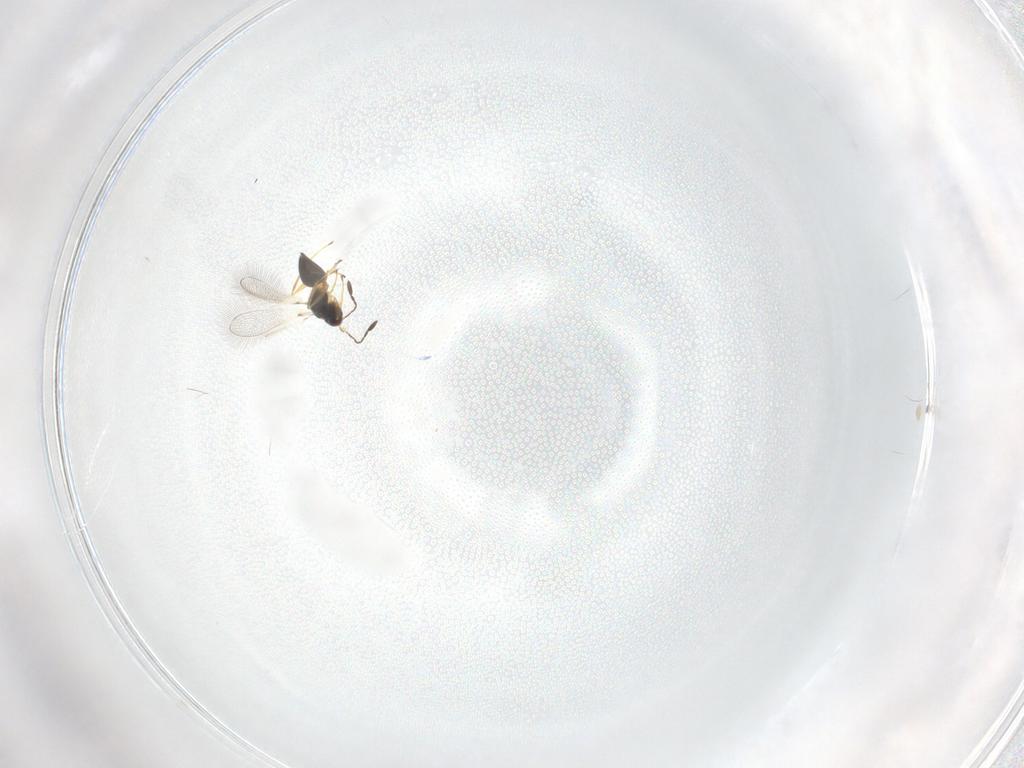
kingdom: Animalia
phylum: Arthropoda
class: Insecta
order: Hymenoptera
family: Mymaridae
